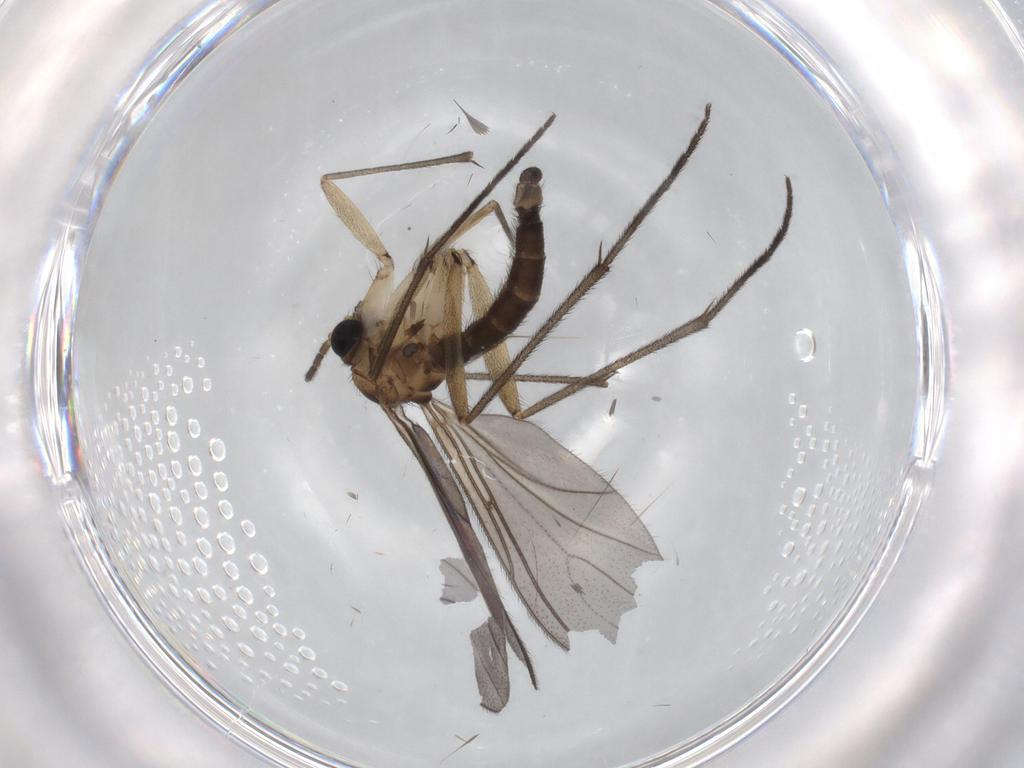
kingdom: Animalia
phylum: Arthropoda
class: Insecta
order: Diptera
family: Sciaridae
